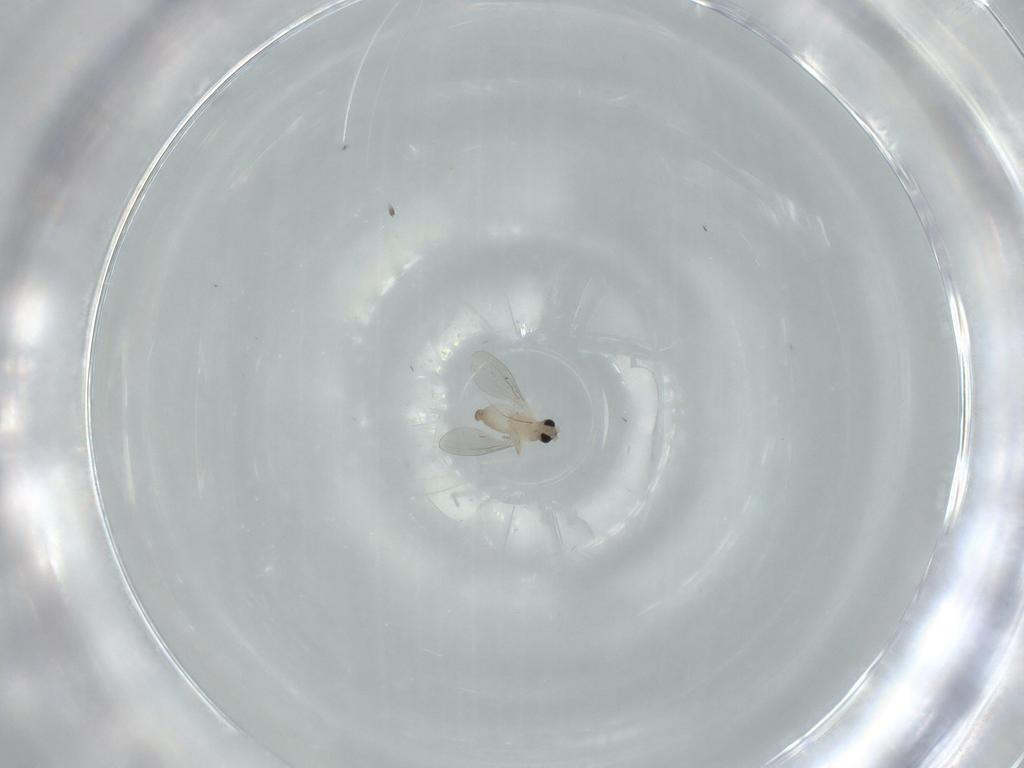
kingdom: Animalia
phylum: Arthropoda
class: Insecta
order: Diptera
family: Cecidomyiidae
